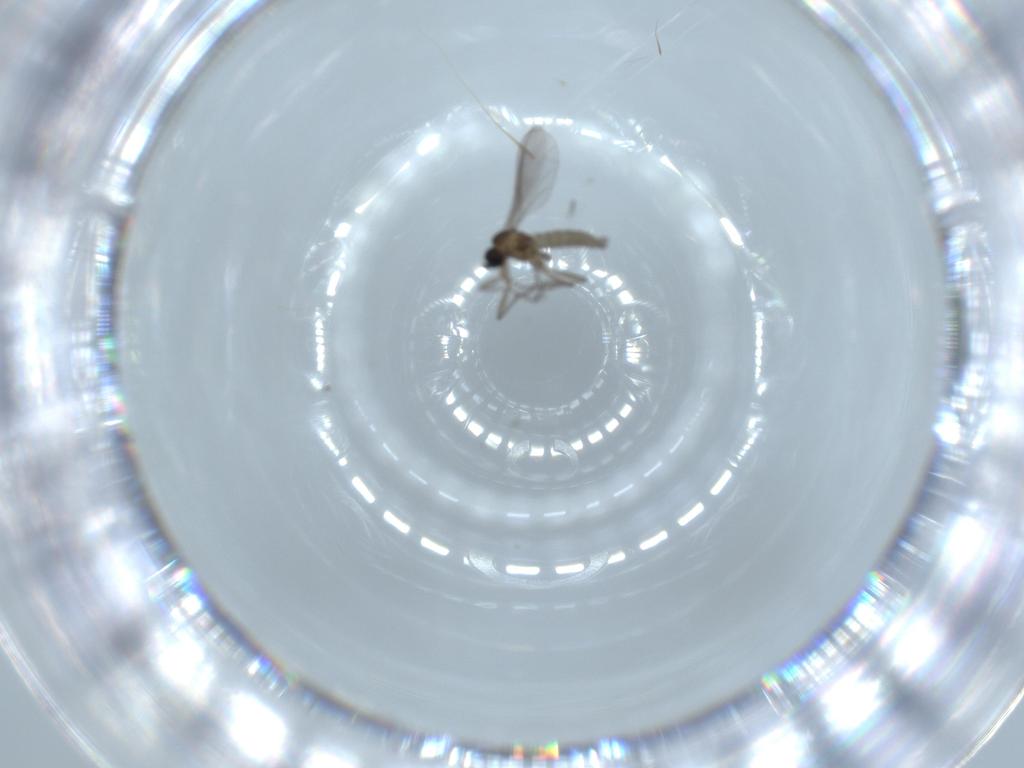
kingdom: Animalia
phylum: Arthropoda
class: Insecta
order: Diptera
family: Sciaridae
